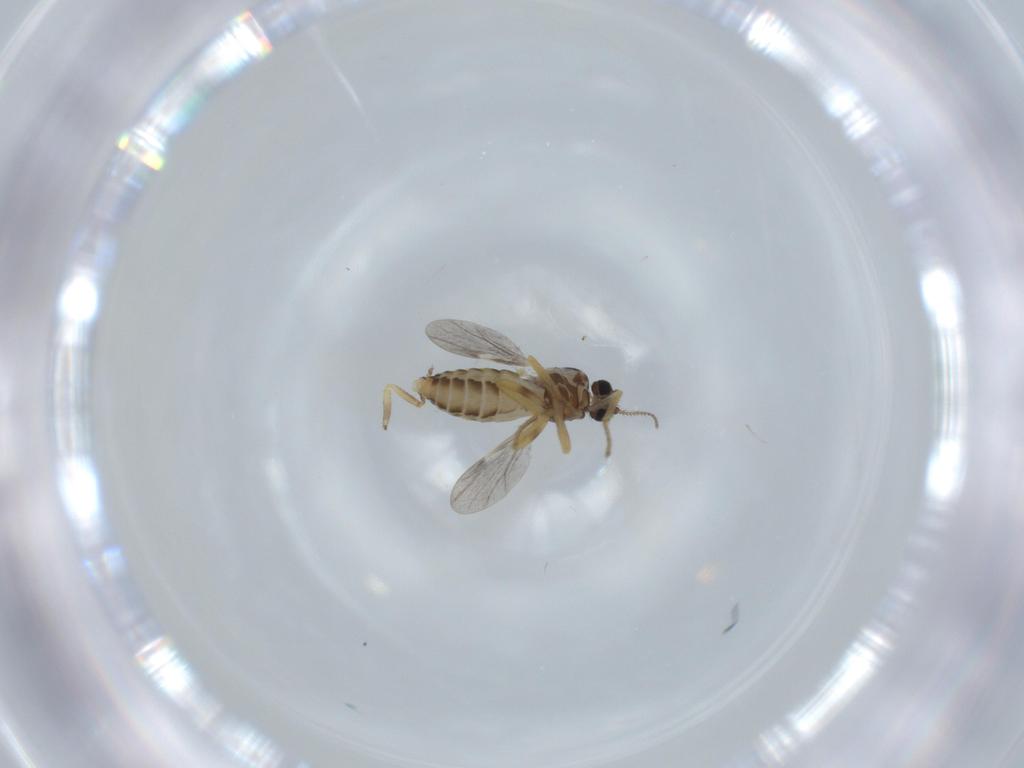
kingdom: Animalia
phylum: Arthropoda
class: Insecta
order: Diptera
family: Ceratopogonidae
